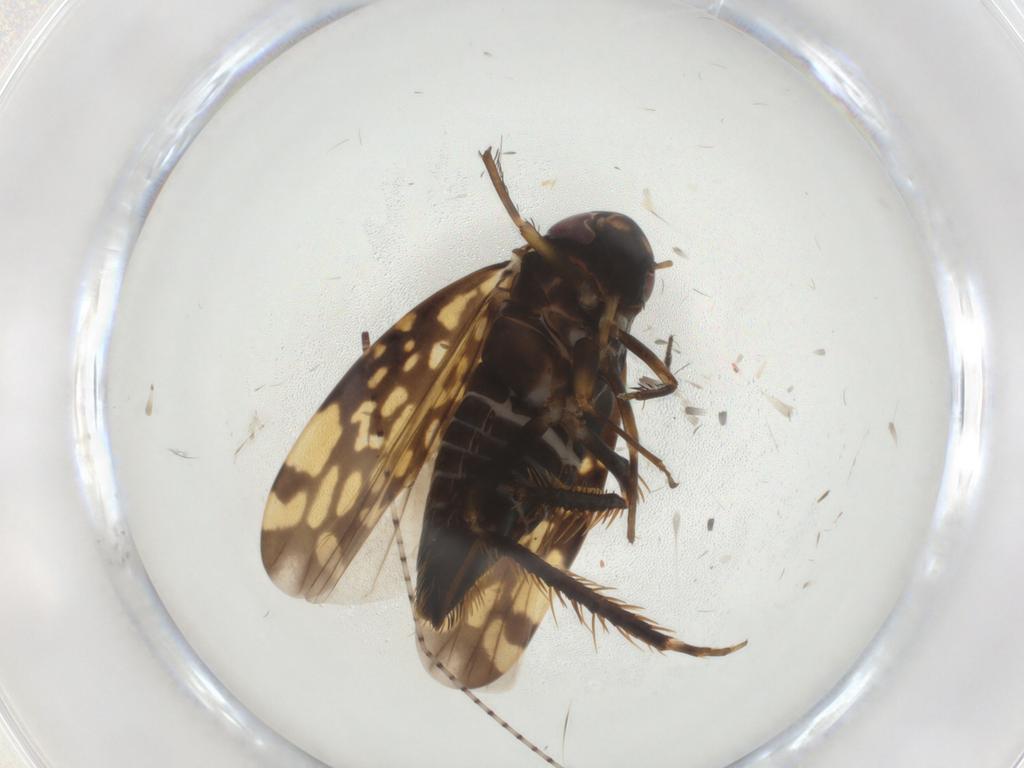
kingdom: Animalia
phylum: Arthropoda
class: Insecta
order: Hemiptera
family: Cicadellidae
